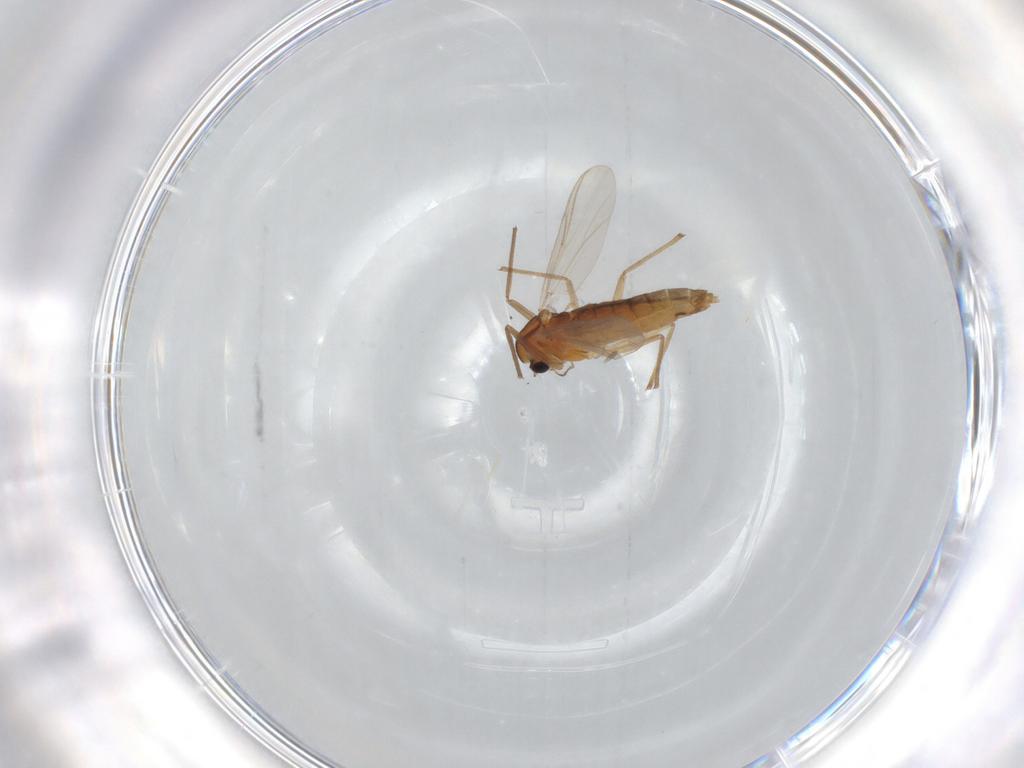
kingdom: Animalia
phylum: Arthropoda
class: Insecta
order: Diptera
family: Chironomidae
